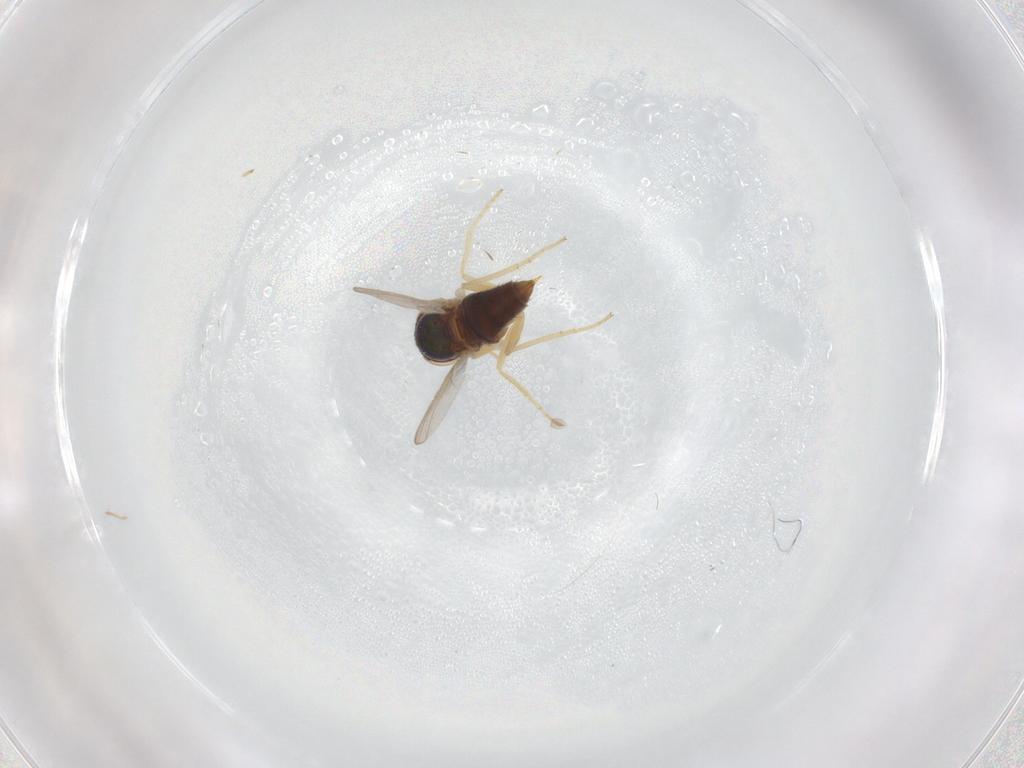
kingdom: Animalia
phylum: Arthropoda
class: Insecta
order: Diptera
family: Dolichopodidae
